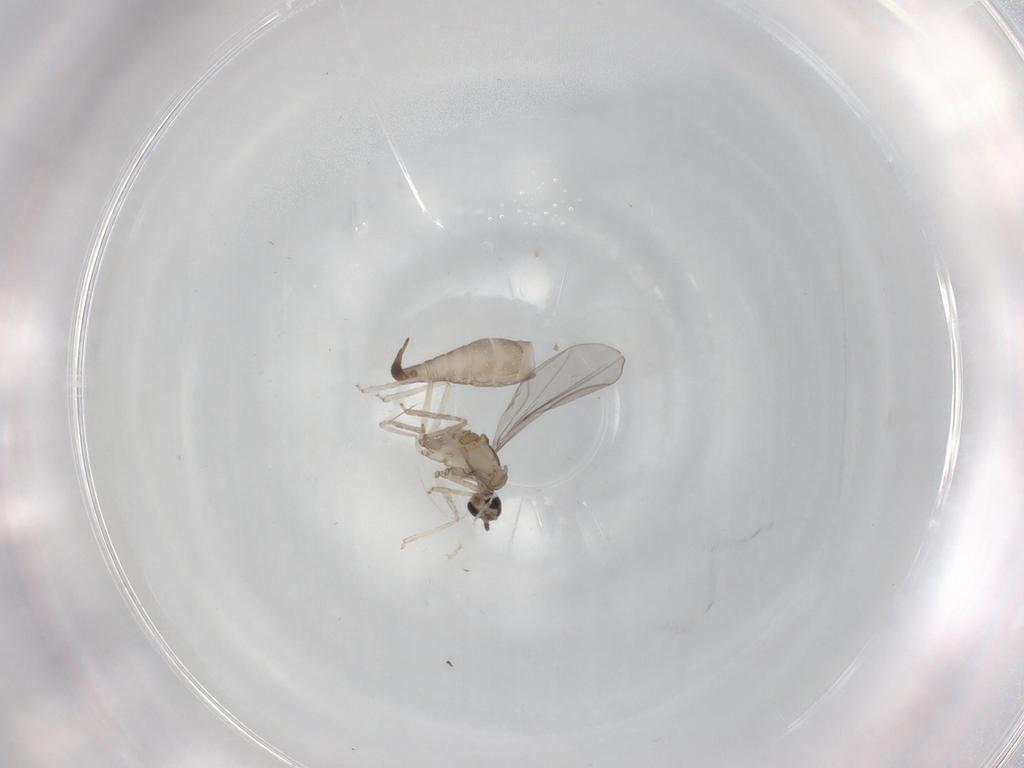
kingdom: Animalia
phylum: Arthropoda
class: Insecta
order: Diptera
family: Cecidomyiidae
